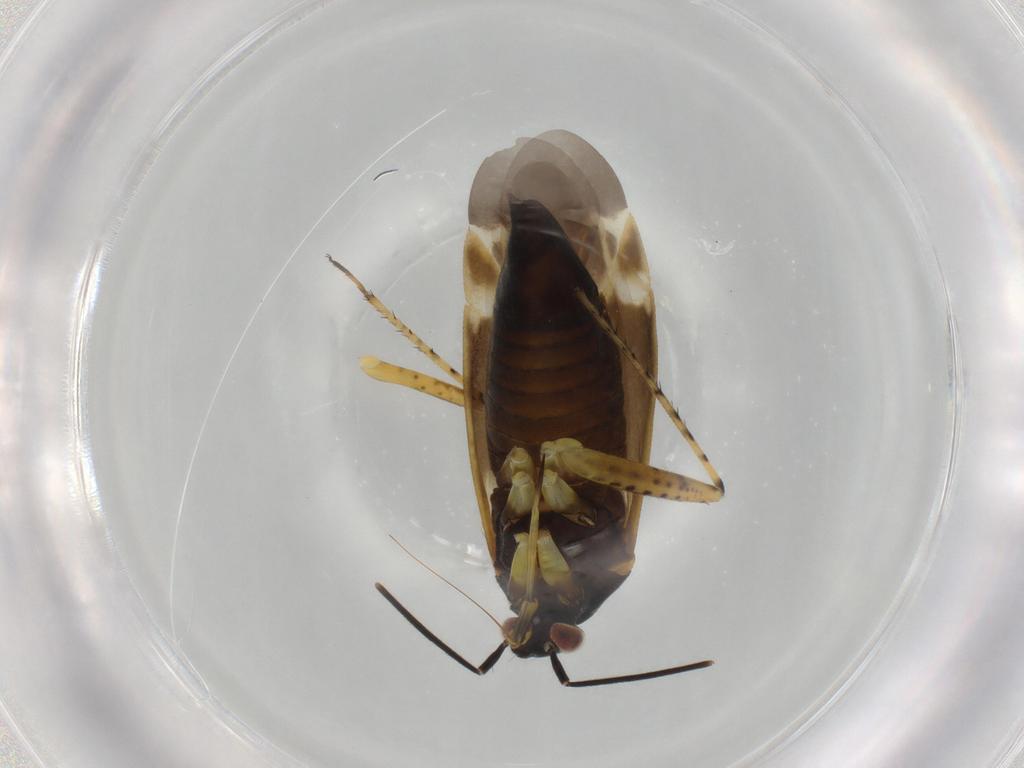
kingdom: Animalia
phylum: Arthropoda
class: Insecta
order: Hemiptera
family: Miridae
